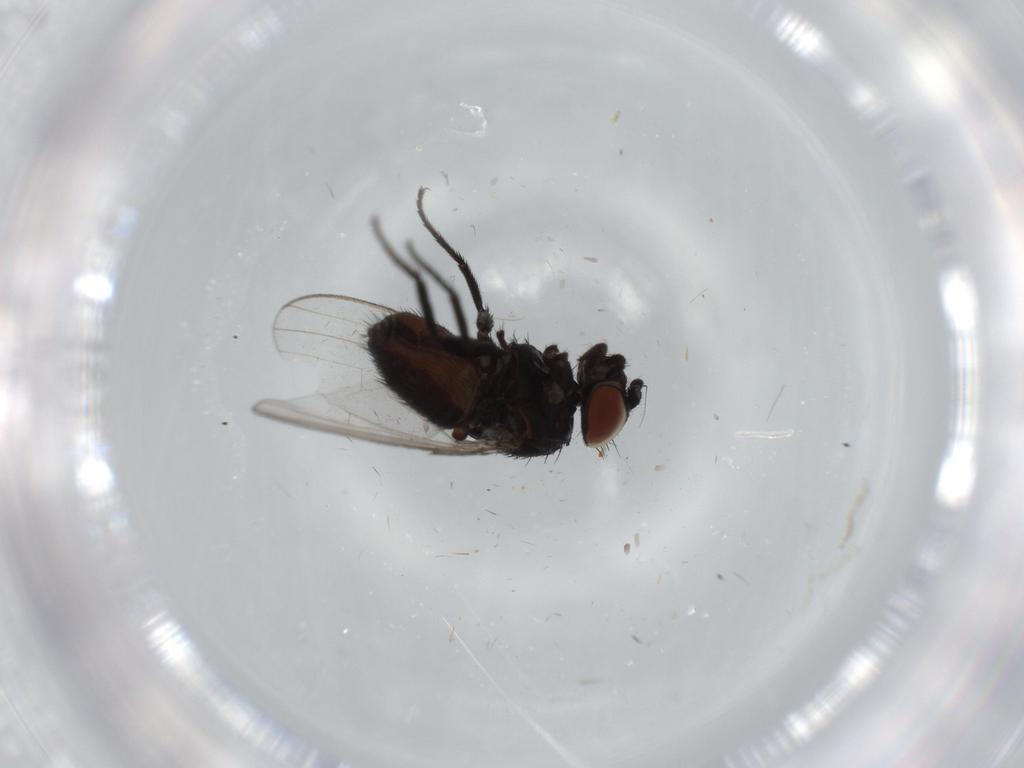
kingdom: Animalia
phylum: Arthropoda
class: Insecta
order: Diptera
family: Milichiidae
